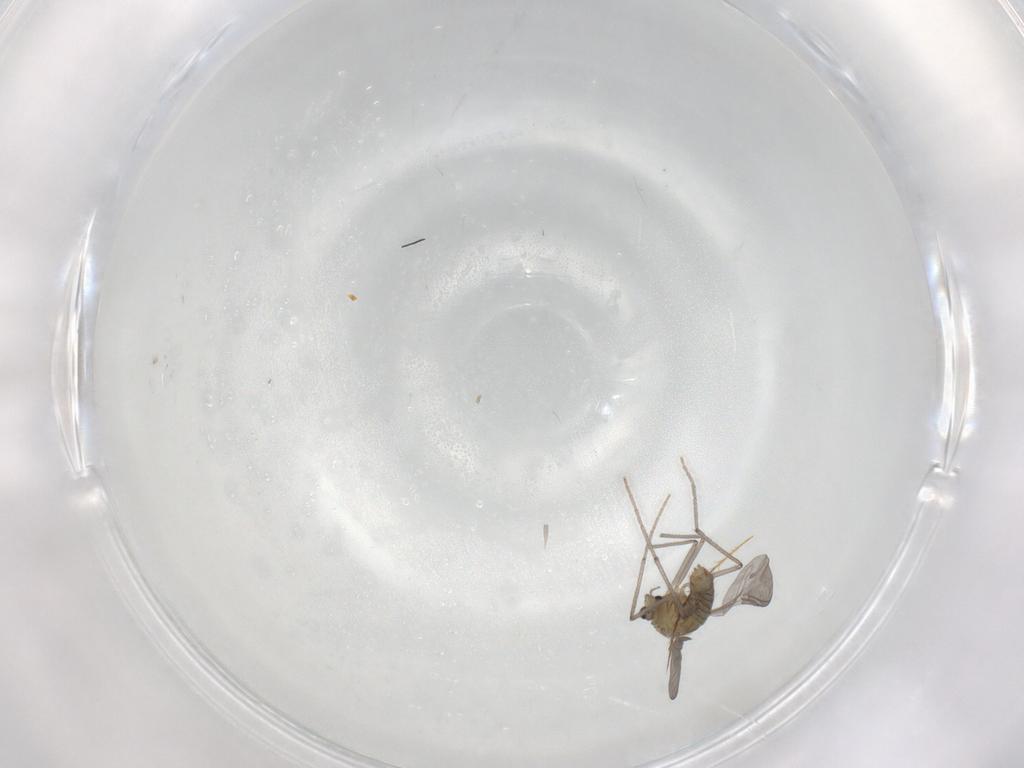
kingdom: Animalia
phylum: Arthropoda
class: Insecta
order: Diptera
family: Chironomidae
